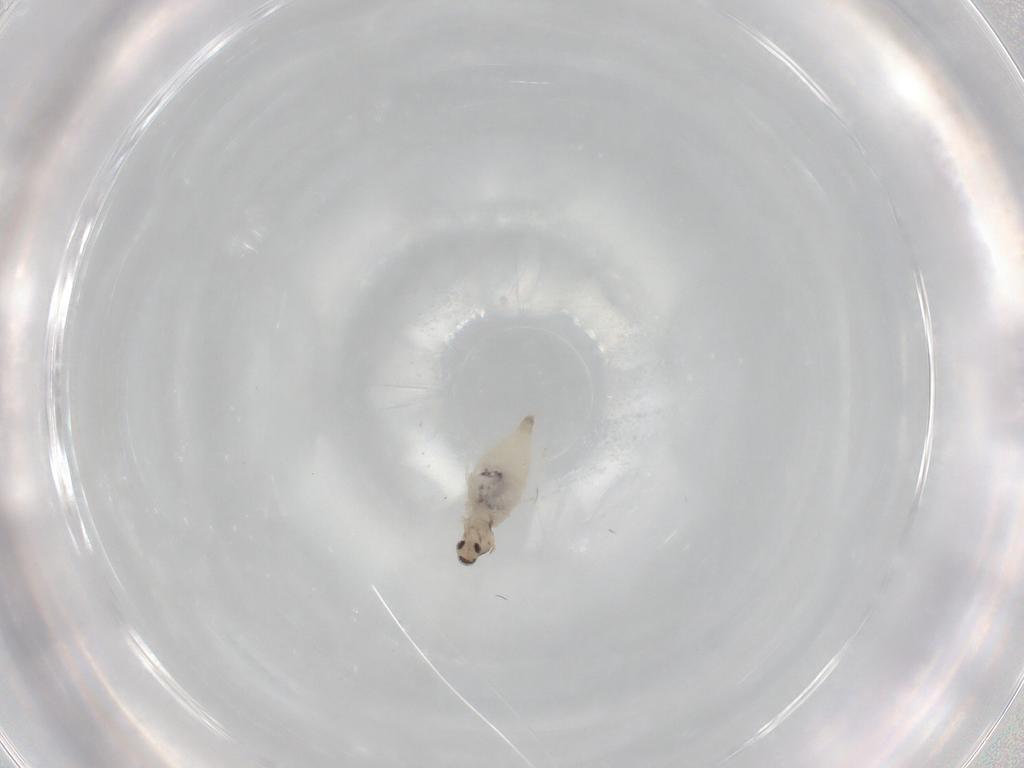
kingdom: Animalia
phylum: Arthropoda
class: Insecta
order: Diptera
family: Cecidomyiidae
